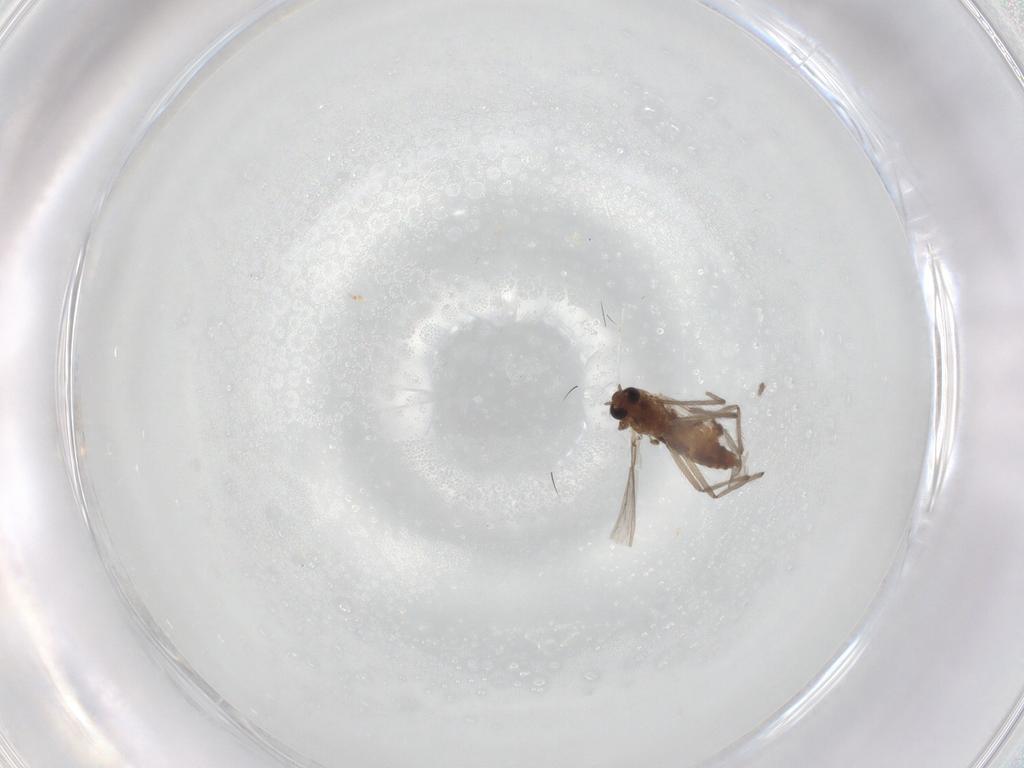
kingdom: Animalia
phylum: Arthropoda
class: Insecta
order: Diptera
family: Chironomidae
